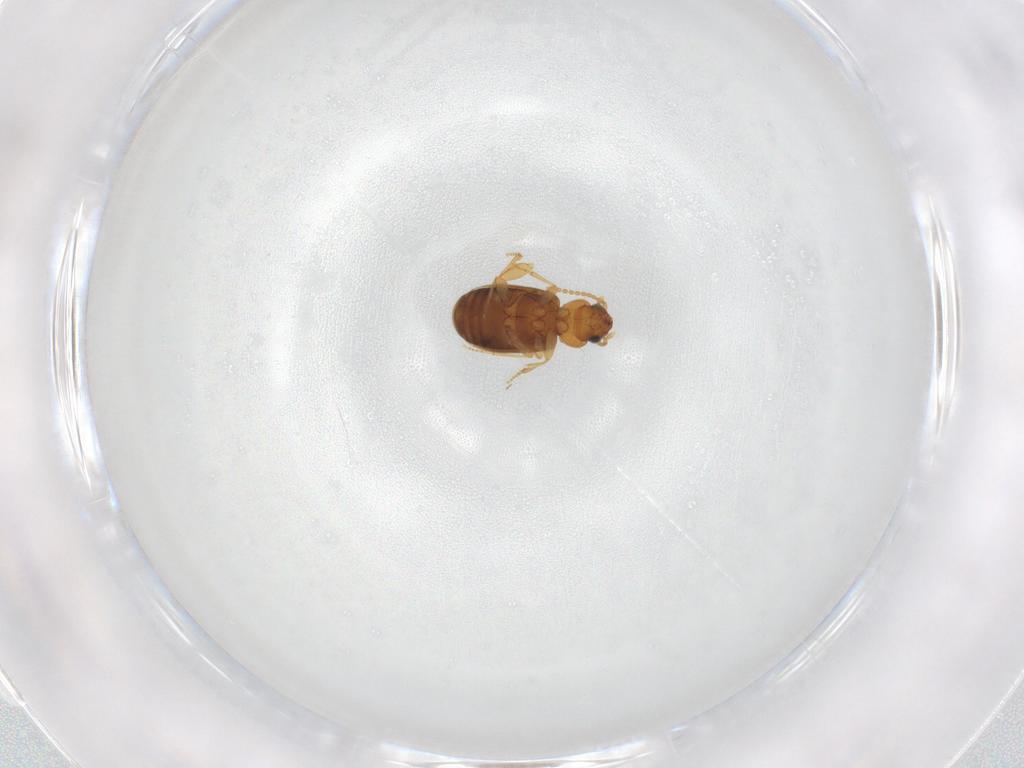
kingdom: Animalia
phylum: Arthropoda
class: Insecta
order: Coleoptera
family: Carabidae
